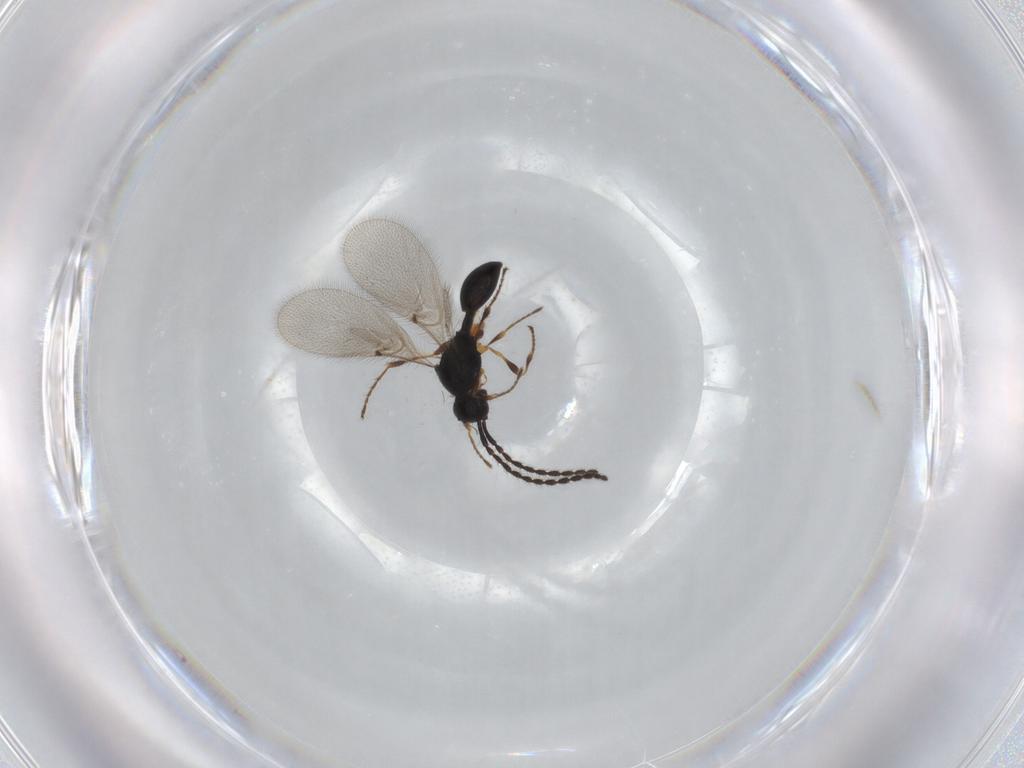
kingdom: Animalia
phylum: Arthropoda
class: Insecta
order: Hymenoptera
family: Diapriidae
